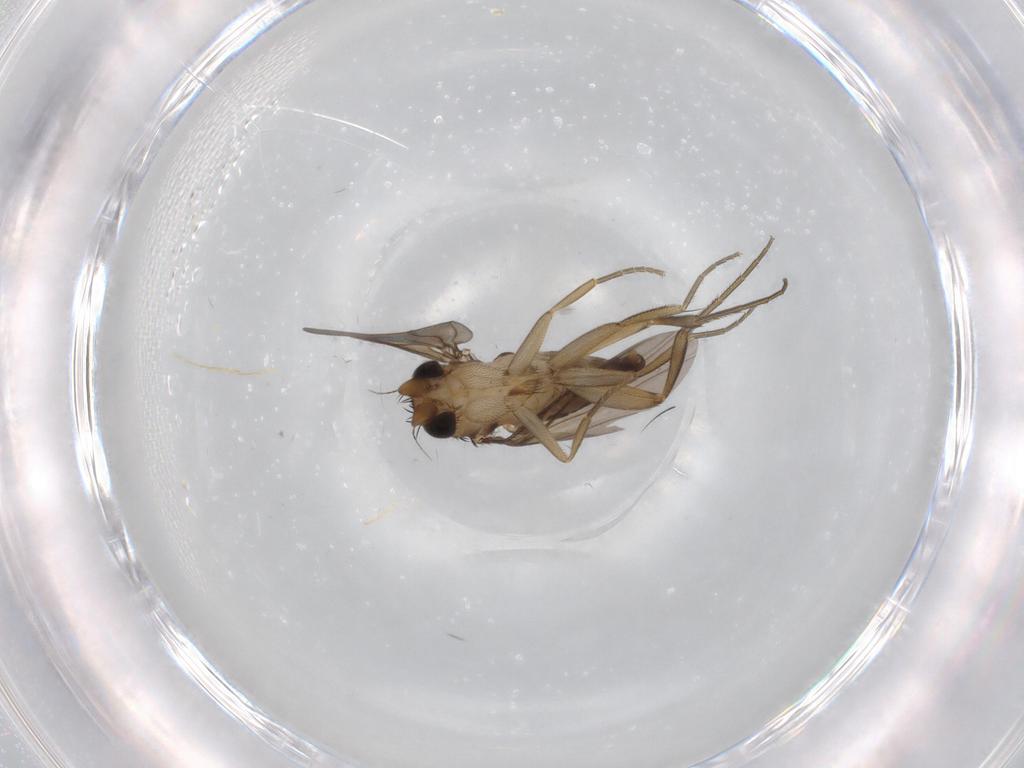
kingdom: Animalia
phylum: Arthropoda
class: Insecta
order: Diptera
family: Phoridae
